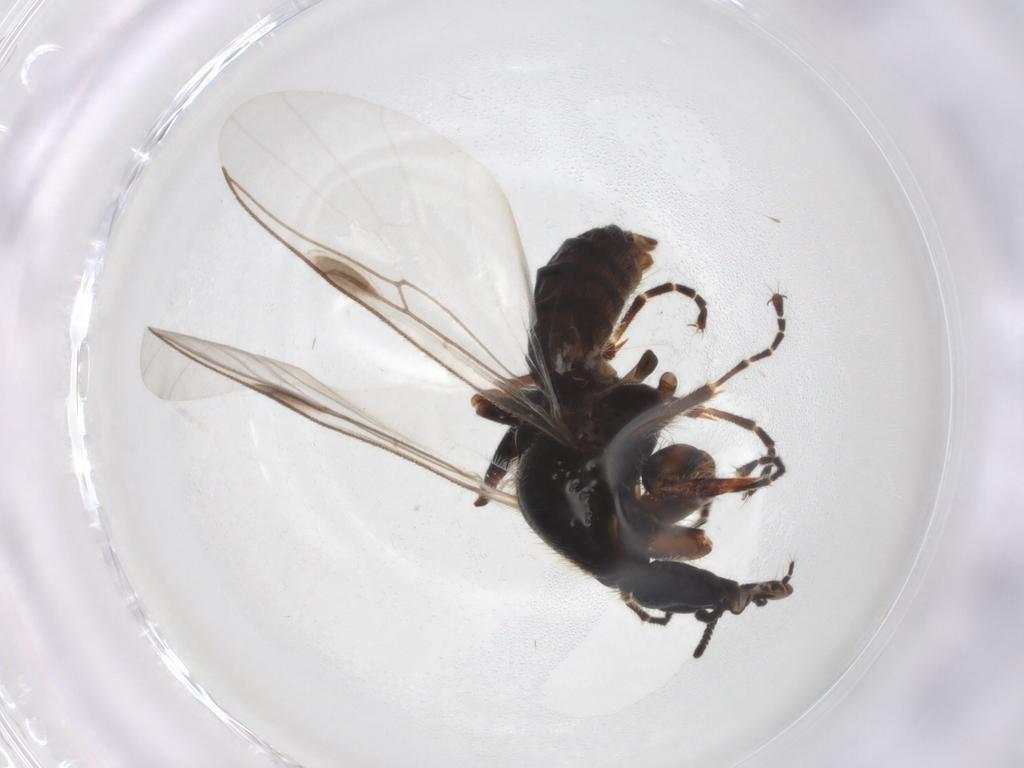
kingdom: Animalia
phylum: Arthropoda
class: Insecta
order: Diptera
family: Bibionidae
